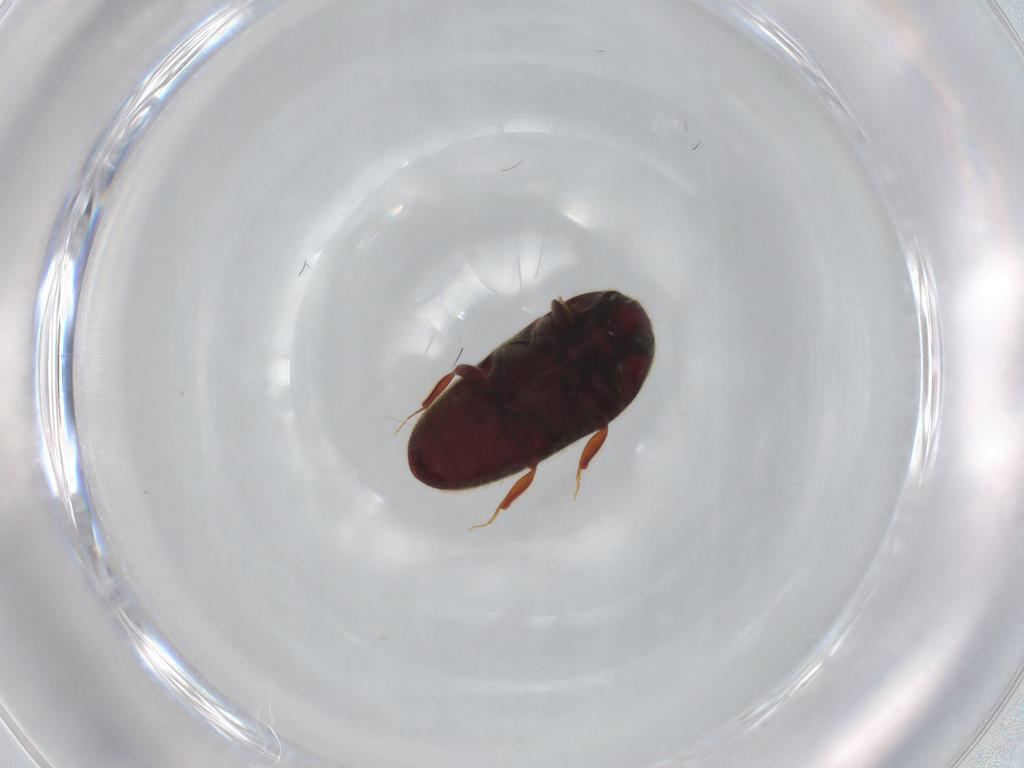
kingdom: Animalia
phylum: Arthropoda
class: Insecta
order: Coleoptera
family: Throscidae
